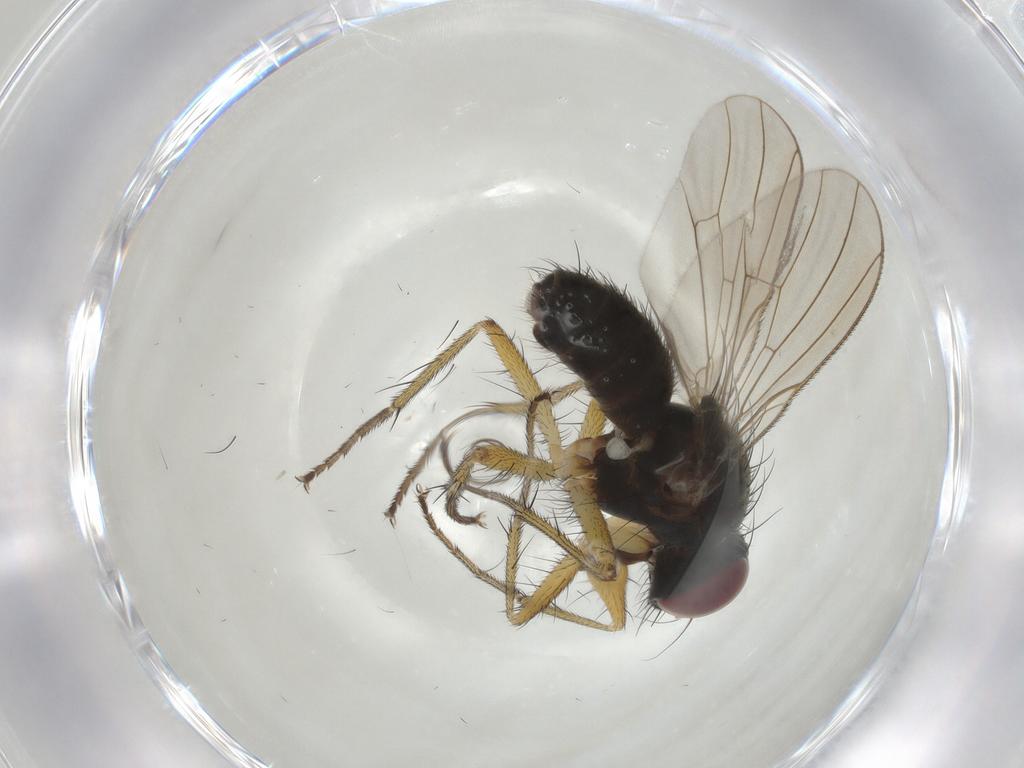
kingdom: Animalia
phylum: Arthropoda
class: Insecta
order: Diptera
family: Muscidae
